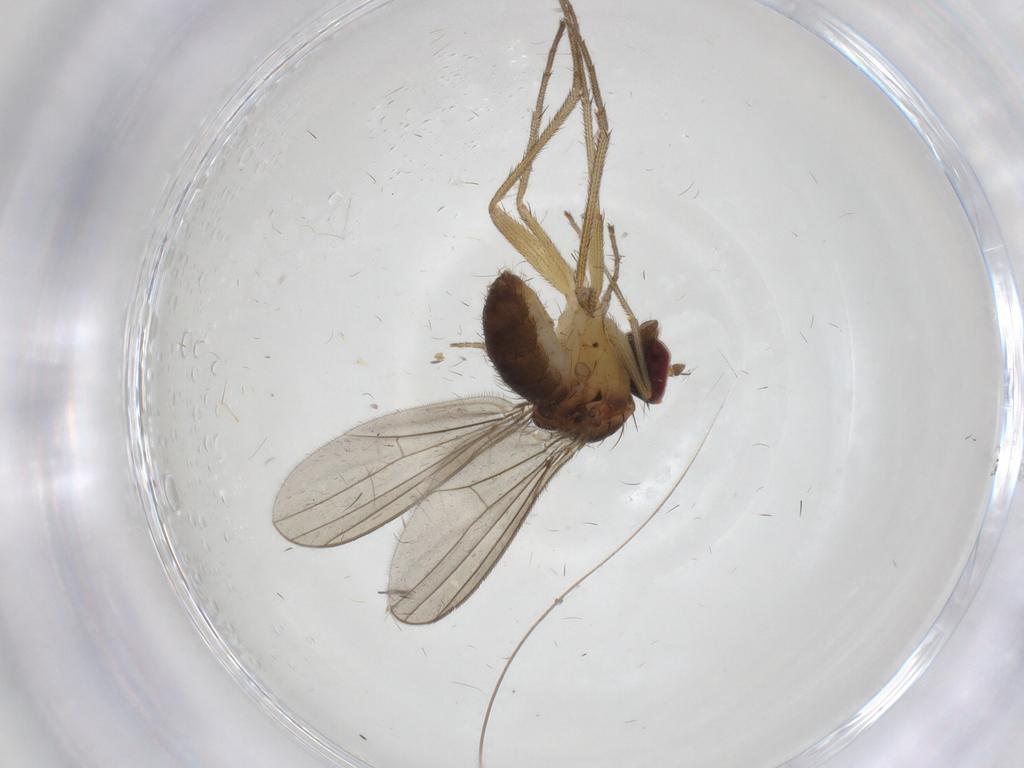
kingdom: Animalia
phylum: Arthropoda
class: Insecta
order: Diptera
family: Dolichopodidae
